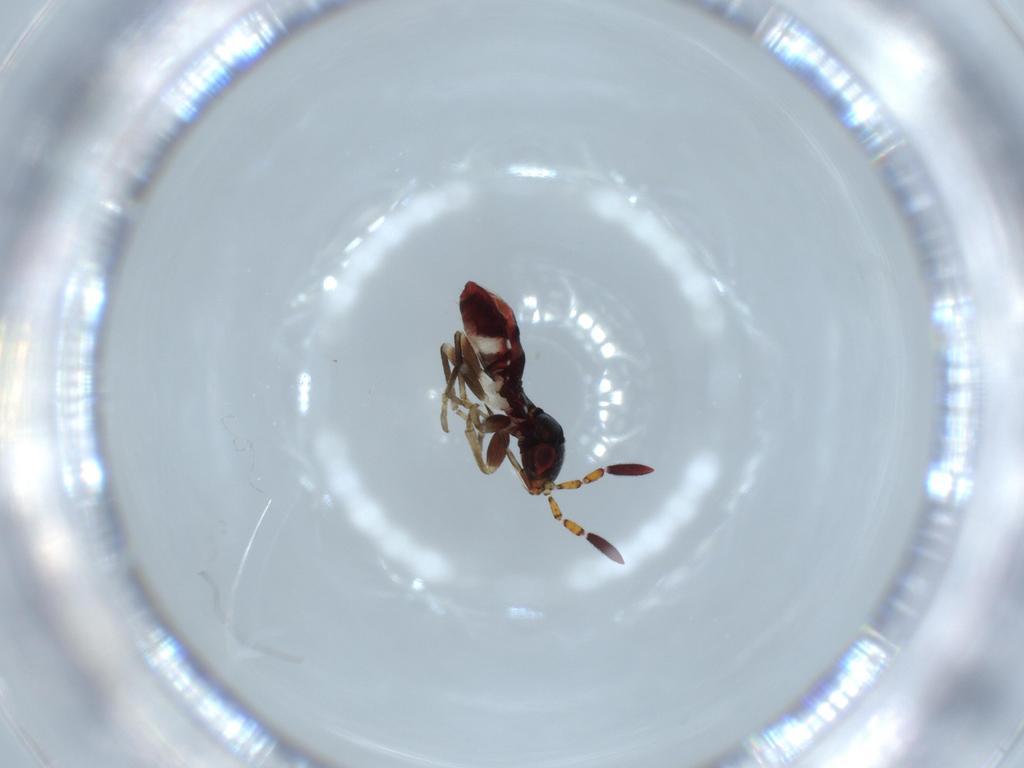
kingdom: Animalia
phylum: Arthropoda
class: Insecta
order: Hemiptera
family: Rhyparochromidae
